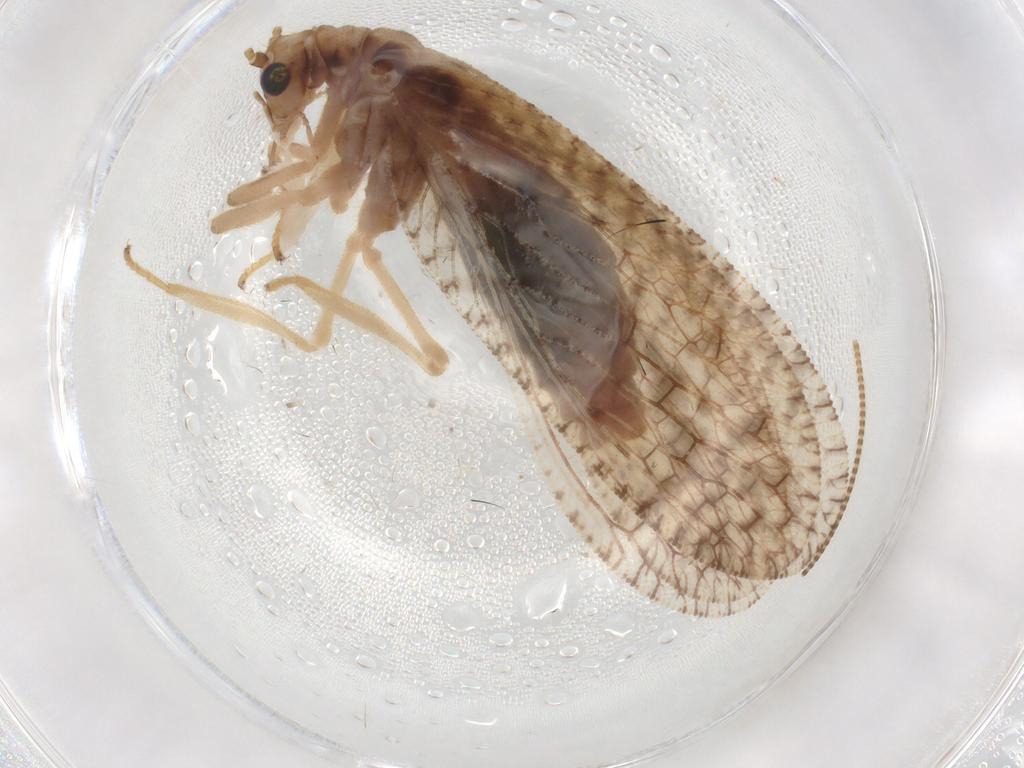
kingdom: Animalia
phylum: Arthropoda
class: Insecta
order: Neuroptera
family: Hemerobiidae
